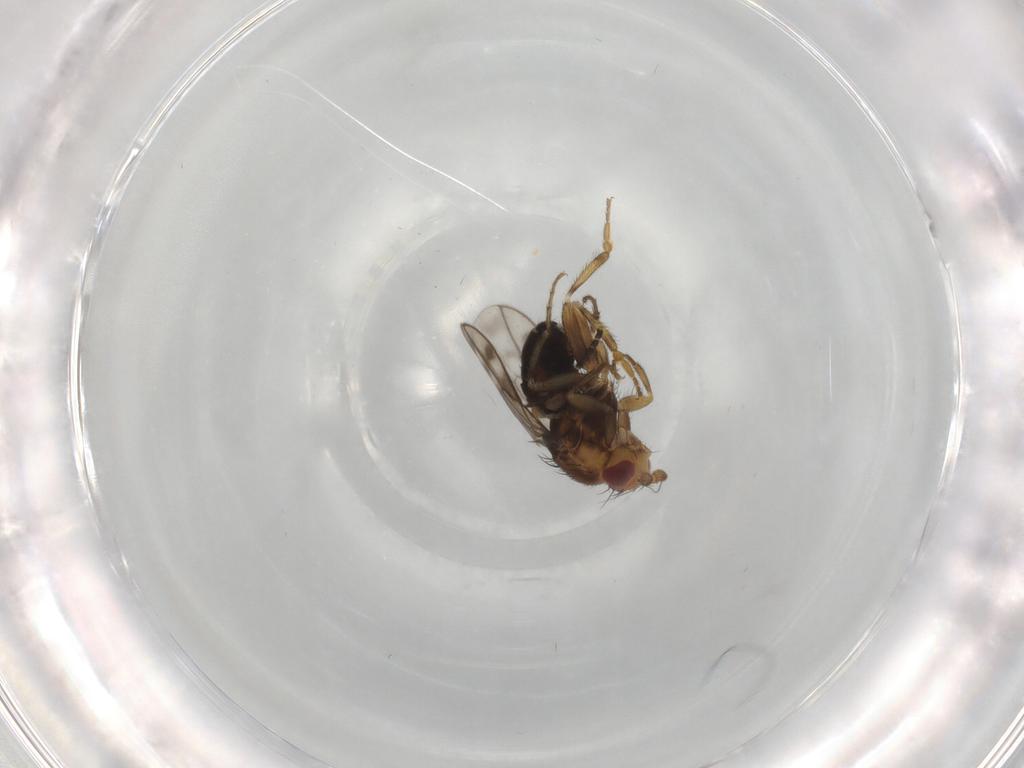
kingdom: Animalia
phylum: Arthropoda
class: Insecta
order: Diptera
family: Sphaeroceridae
